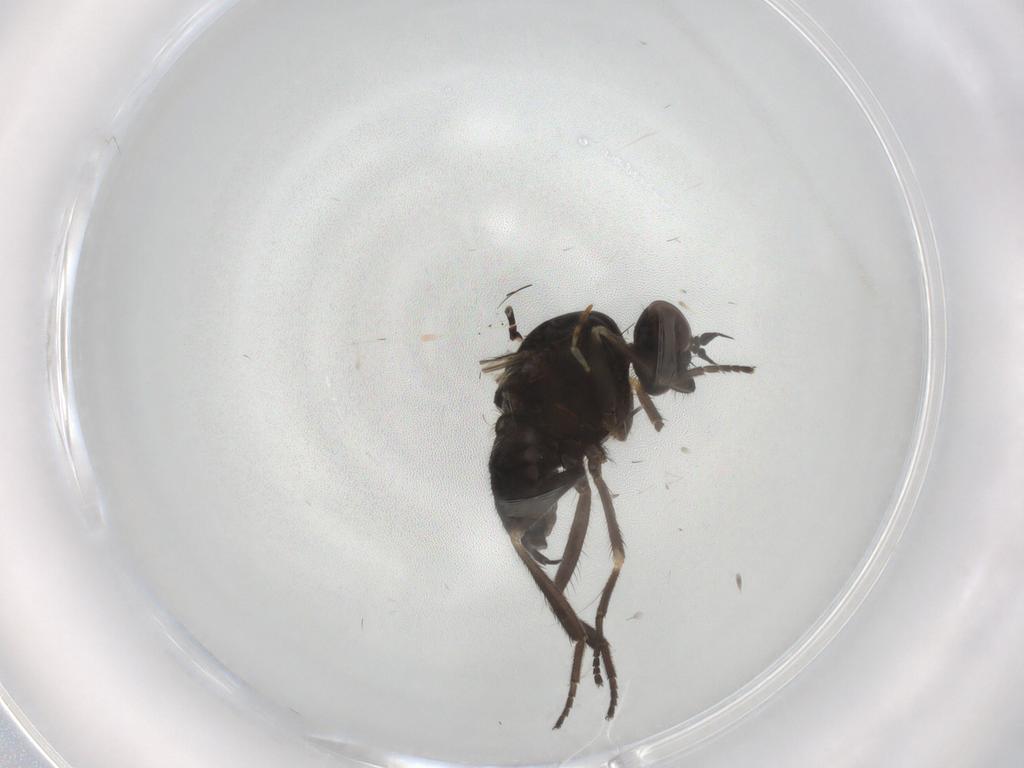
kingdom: Animalia
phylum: Arthropoda
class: Insecta
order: Diptera
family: Empididae
